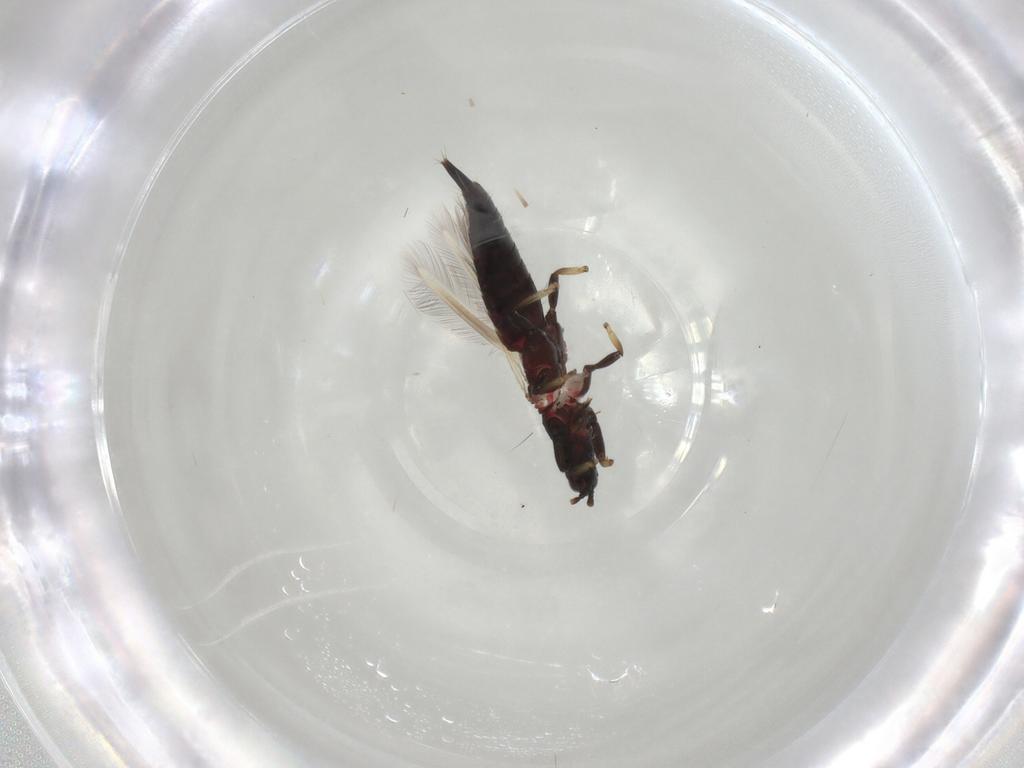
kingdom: Animalia
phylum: Arthropoda
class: Insecta
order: Thysanoptera
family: Phlaeothripidae
